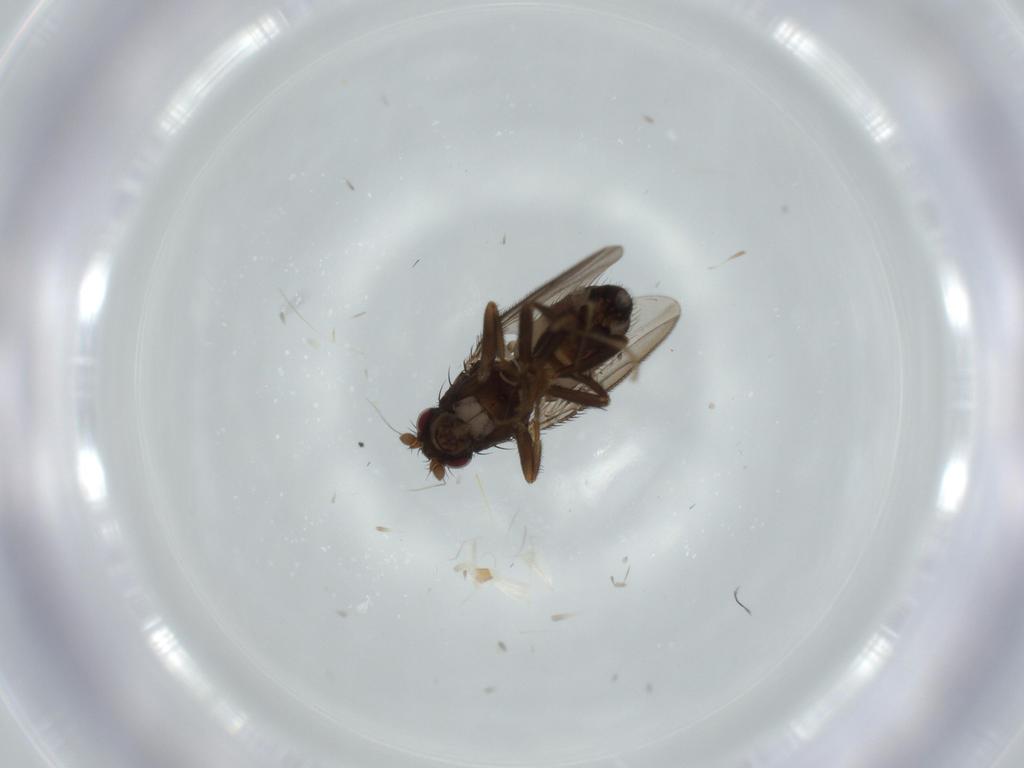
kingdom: Animalia
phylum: Arthropoda
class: Insecta
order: Diptera
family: Sphaeroceridae
